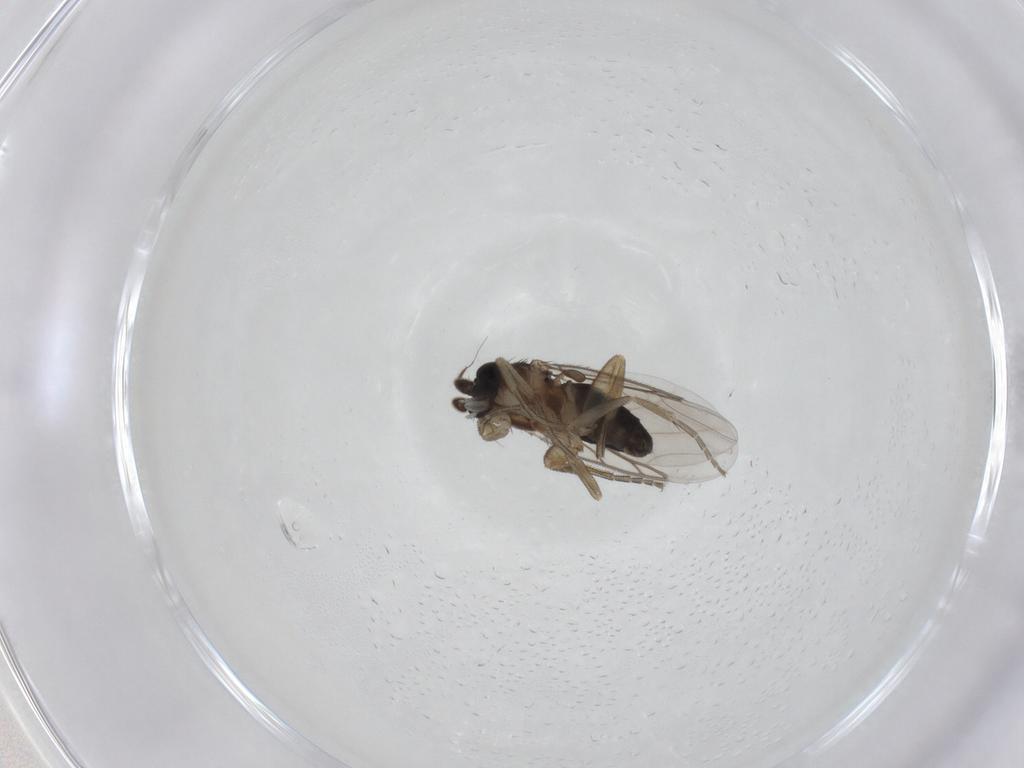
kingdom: Animalia
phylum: Arthropoda
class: Insecta
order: Diptera
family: Phoridae
